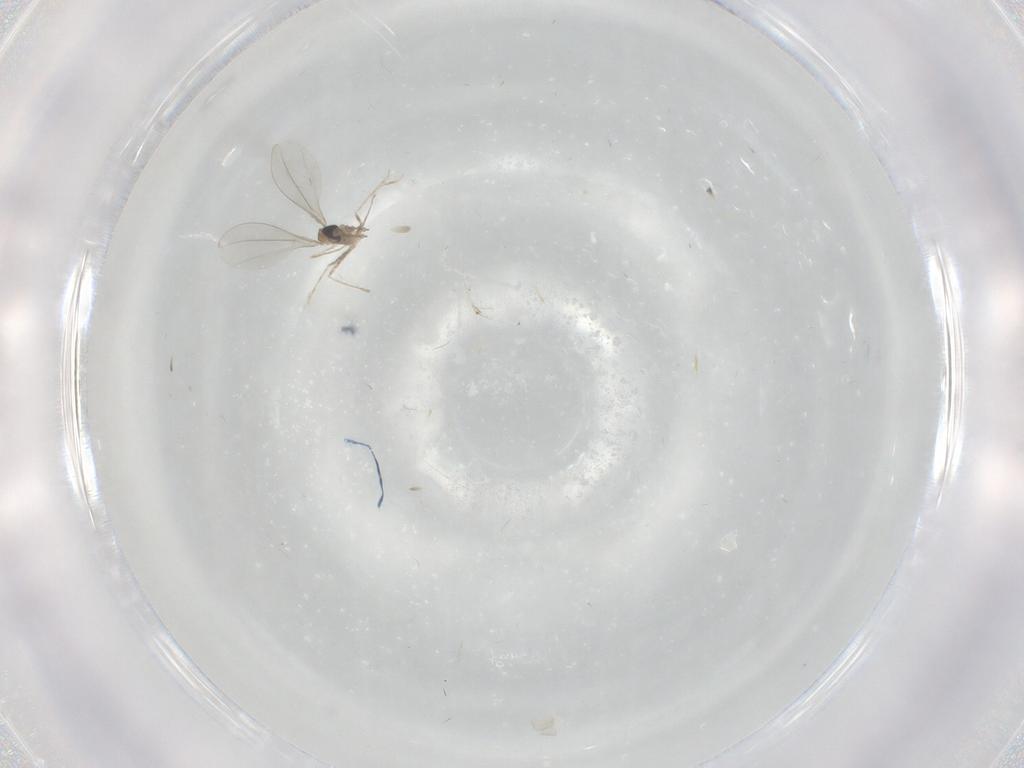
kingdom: Animalia
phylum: Arthropoda
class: Insecta
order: Diptera
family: Cecidomyiidae
